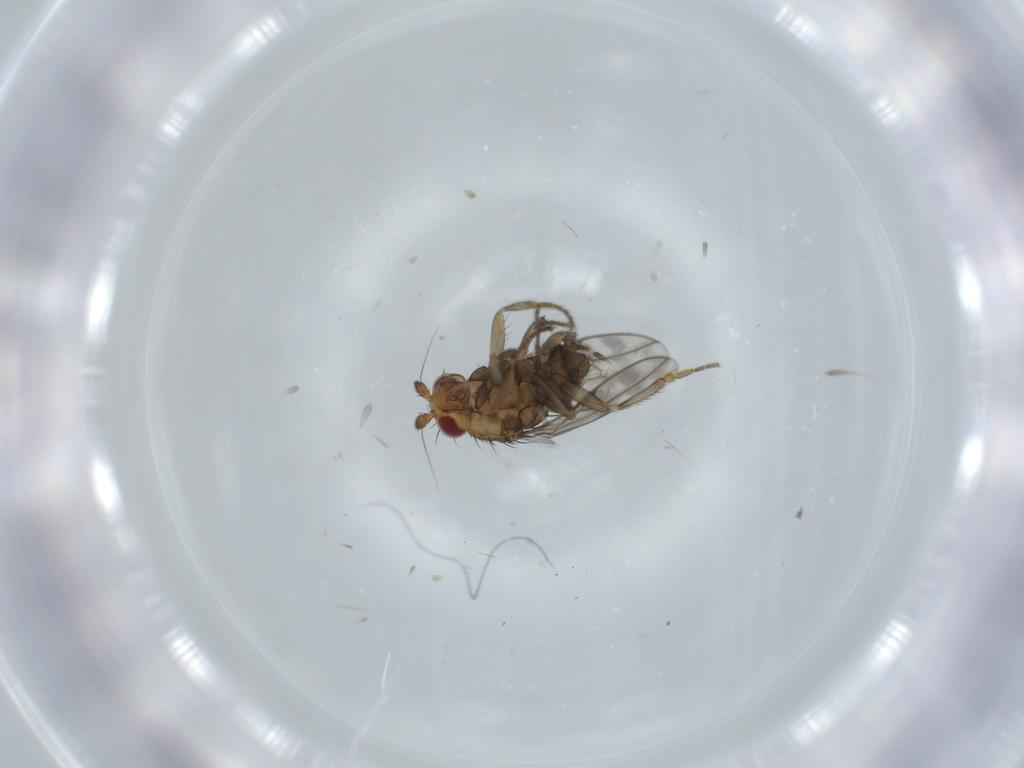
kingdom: Animalia
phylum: Arthropoda
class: Insecta
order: Diptera
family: Sphaeroceridae
